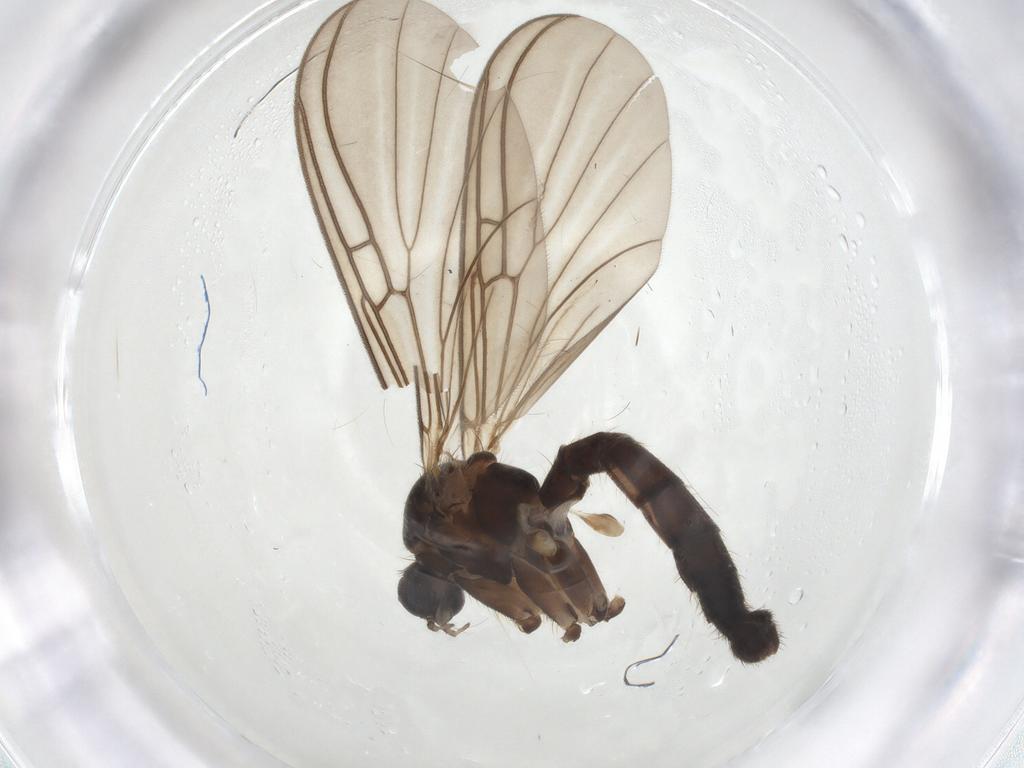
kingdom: Animalia
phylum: Arthropoda
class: Insecta
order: Diptera
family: Mycetophilidae
